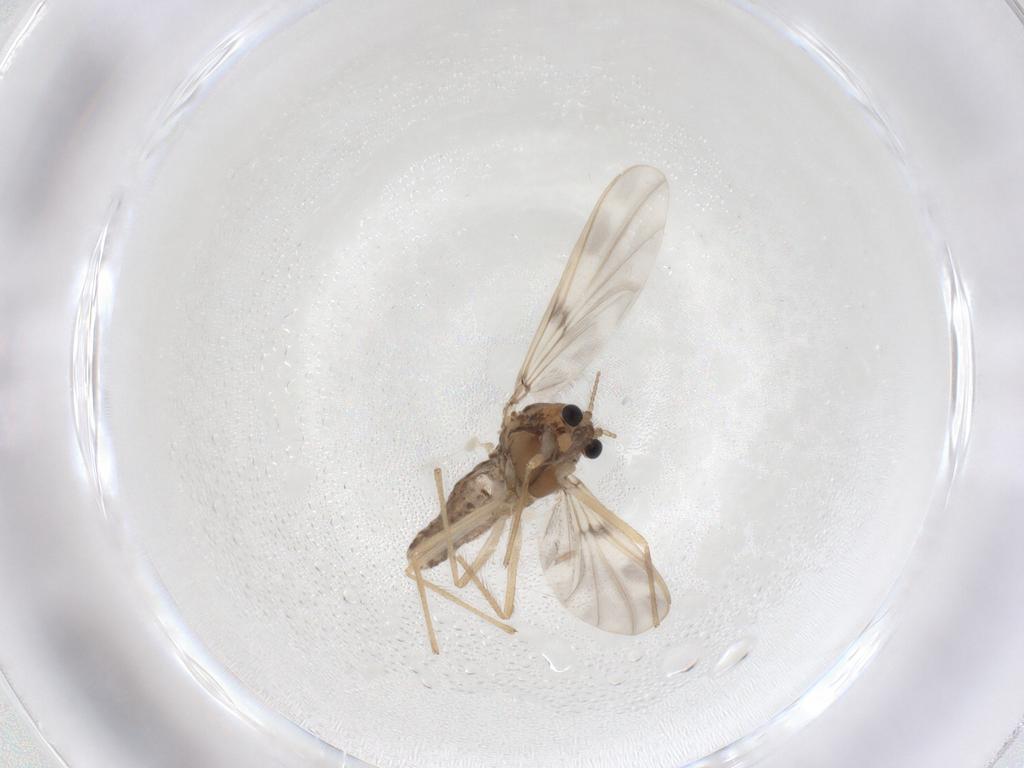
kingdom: Animalia
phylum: Arthropoda
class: Insecta
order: Diptera
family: Chironomidae
